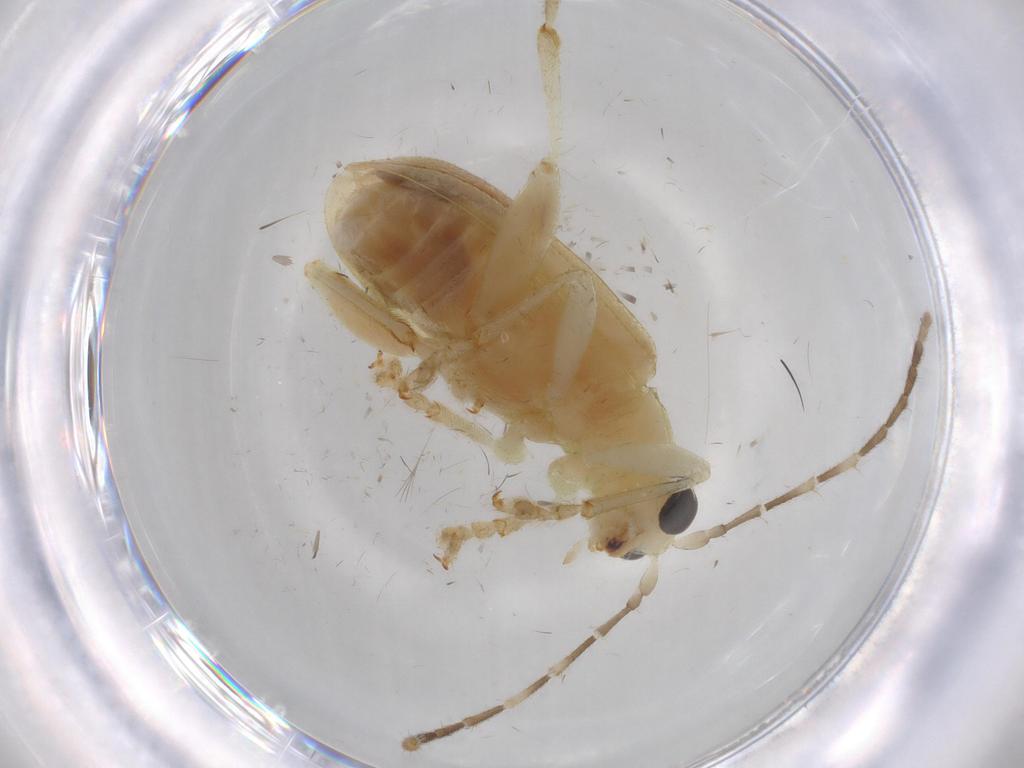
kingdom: Animalia
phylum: Arthropoda
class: Insecta
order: Coleoptera
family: Chrysomelidae
